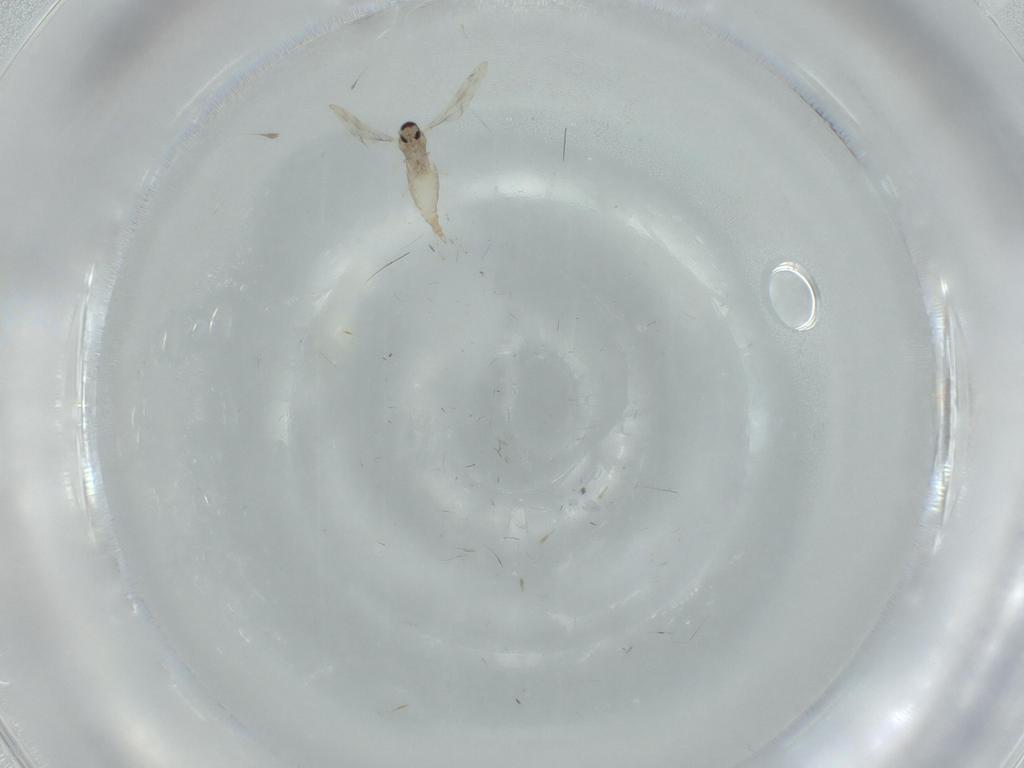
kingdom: Animalia
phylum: Arthropoda
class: Insecta
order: Diptera
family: Cecidomyiidae
